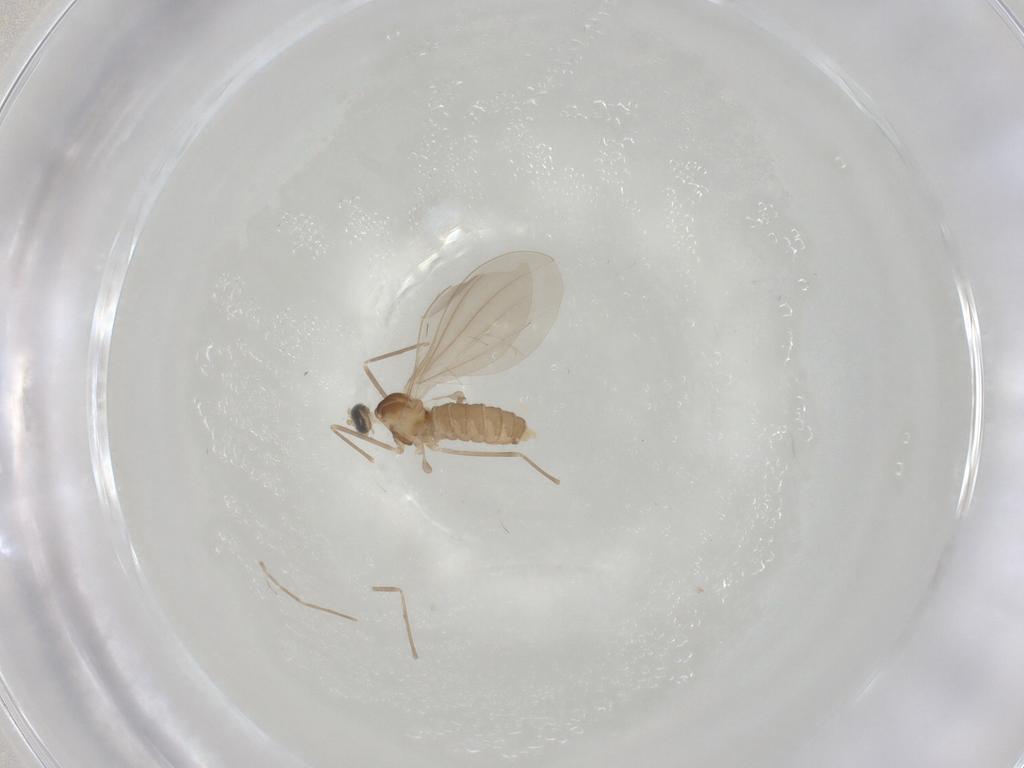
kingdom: Animalia
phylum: Arthropoda
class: Insecta
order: Diptera
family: Cecidomyiidae
